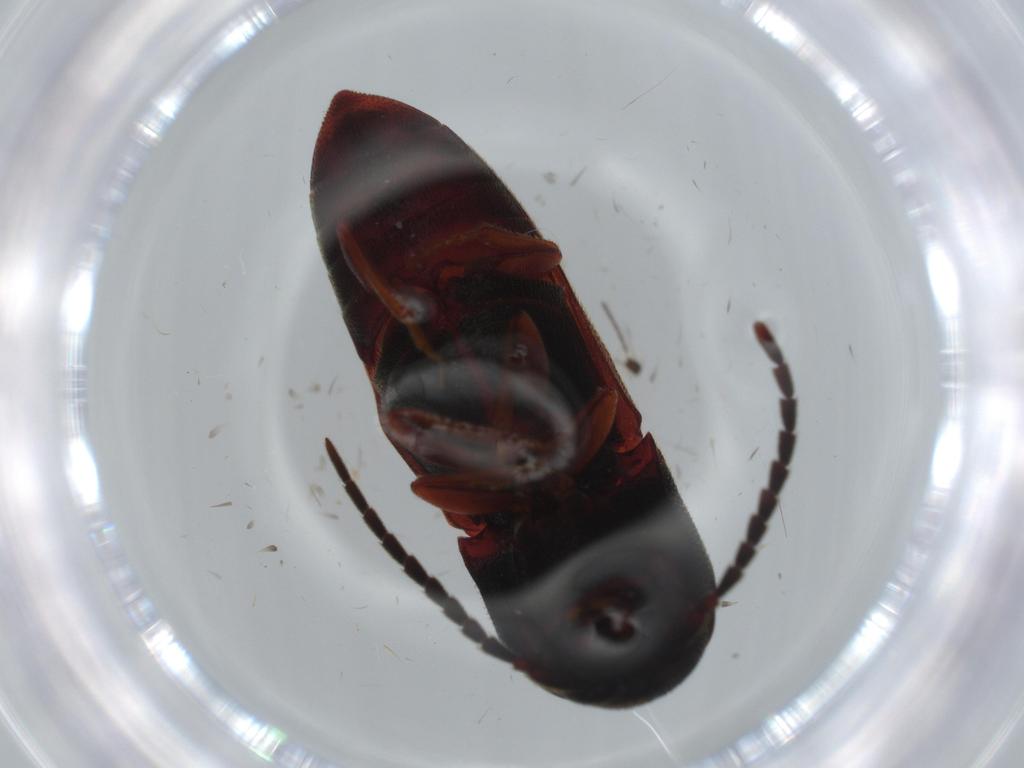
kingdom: Animalia
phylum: Arthropoda
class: Insecta
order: Coleoptera
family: Eucnemidae
